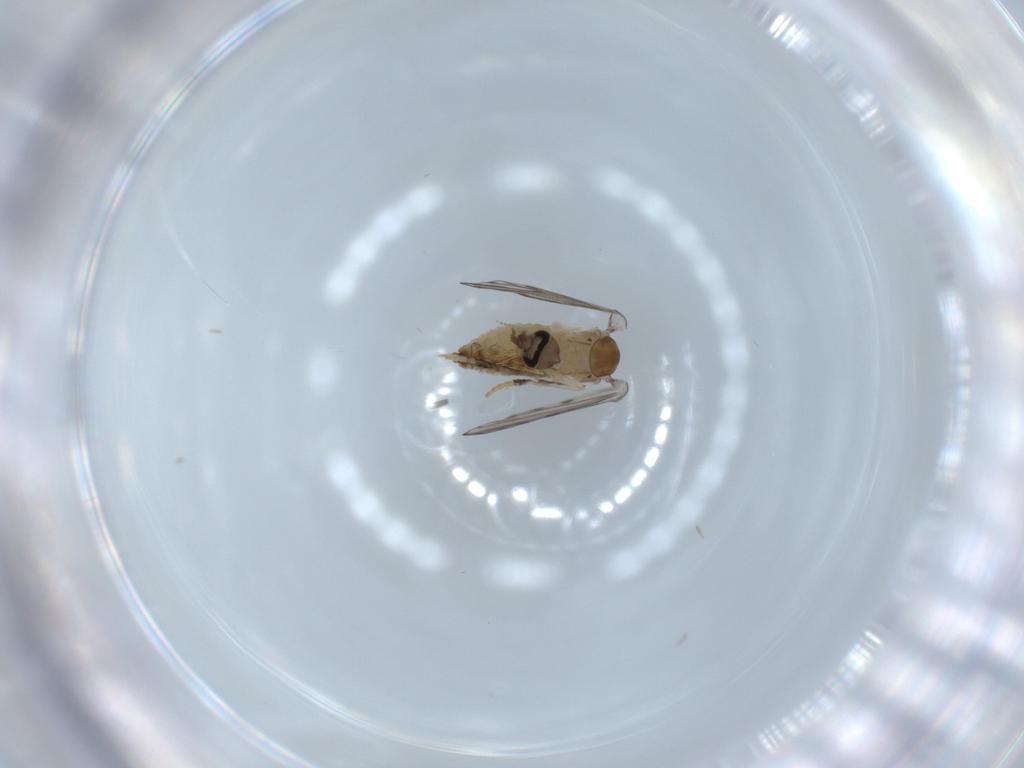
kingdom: Animalia
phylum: Arthropoda
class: Insecta
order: Diptera
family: Psychodidae
